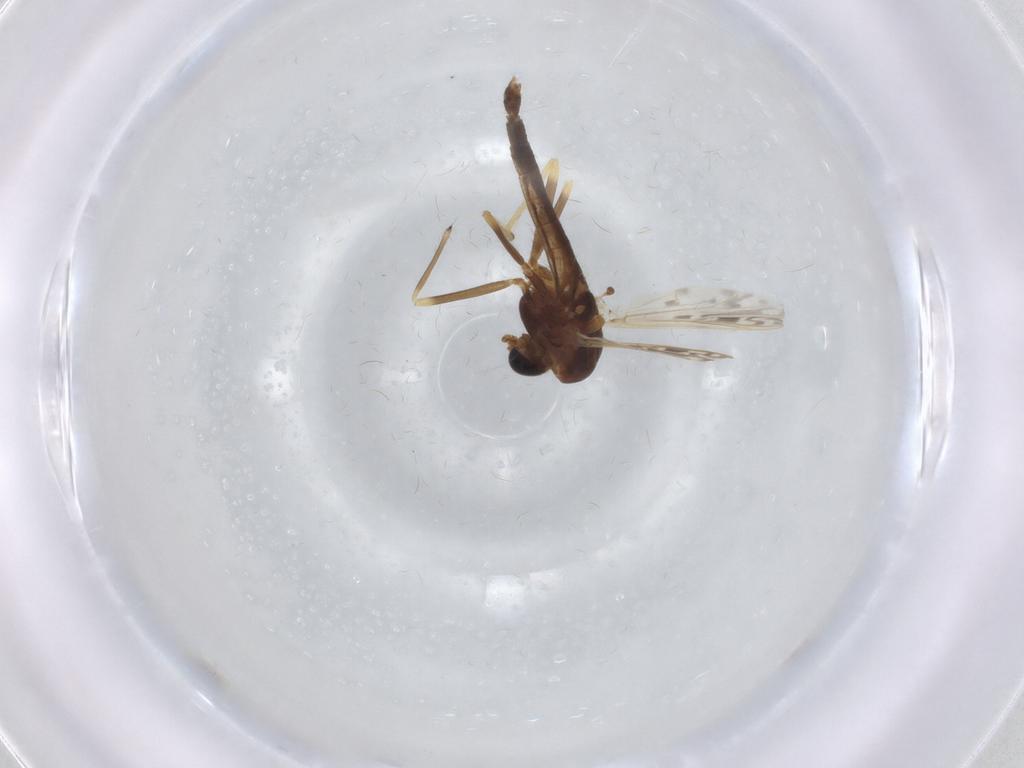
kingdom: Animalia
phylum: Arthropoda
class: Insecta
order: Diptera
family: Chironomidae
